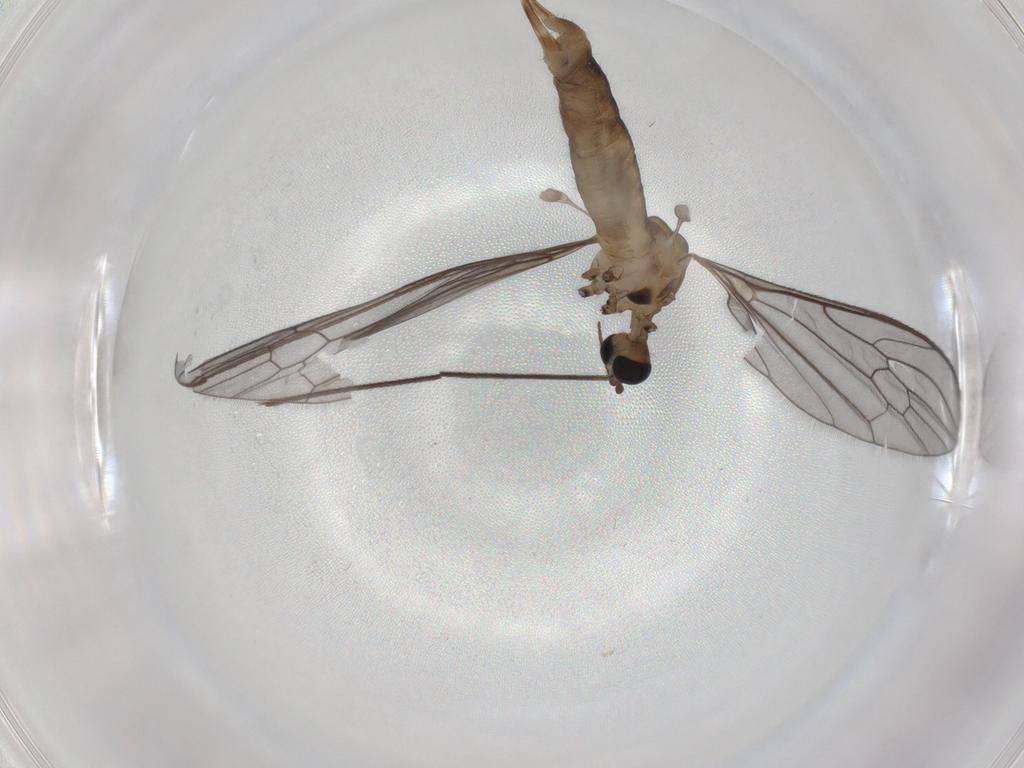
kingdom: Animalia
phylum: Arthropoda
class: Insecta
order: Diptera
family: Limoniidae
